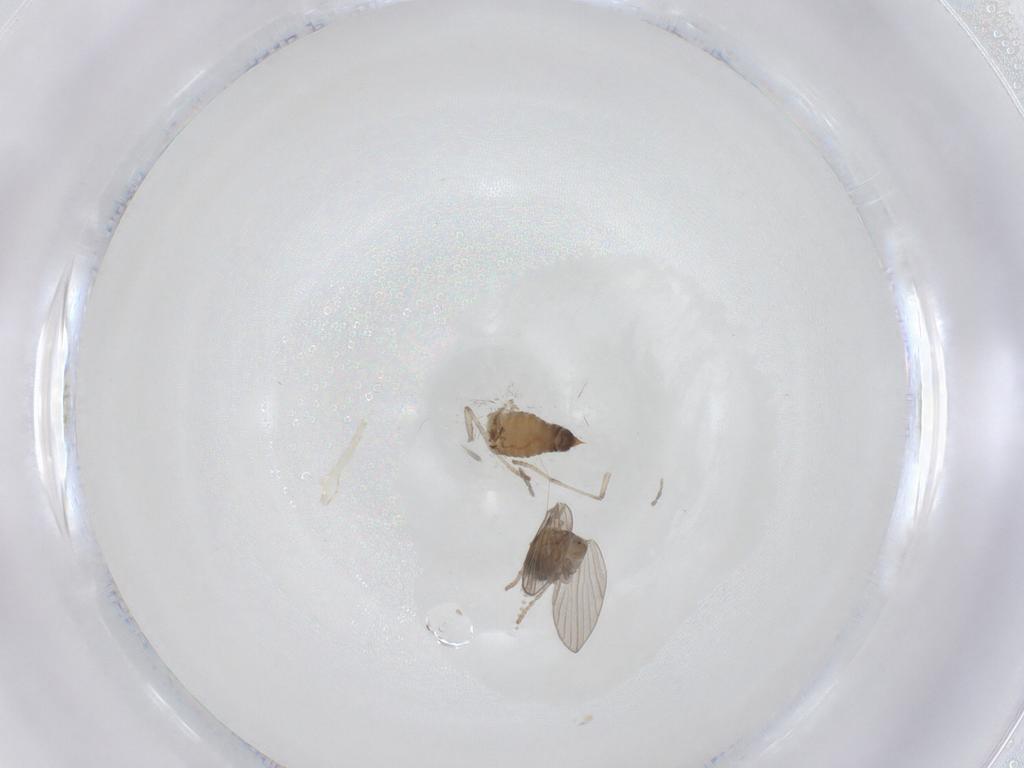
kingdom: Animalia
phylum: Arthropoda
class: Insecta
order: Diptera
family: Psychodidae
